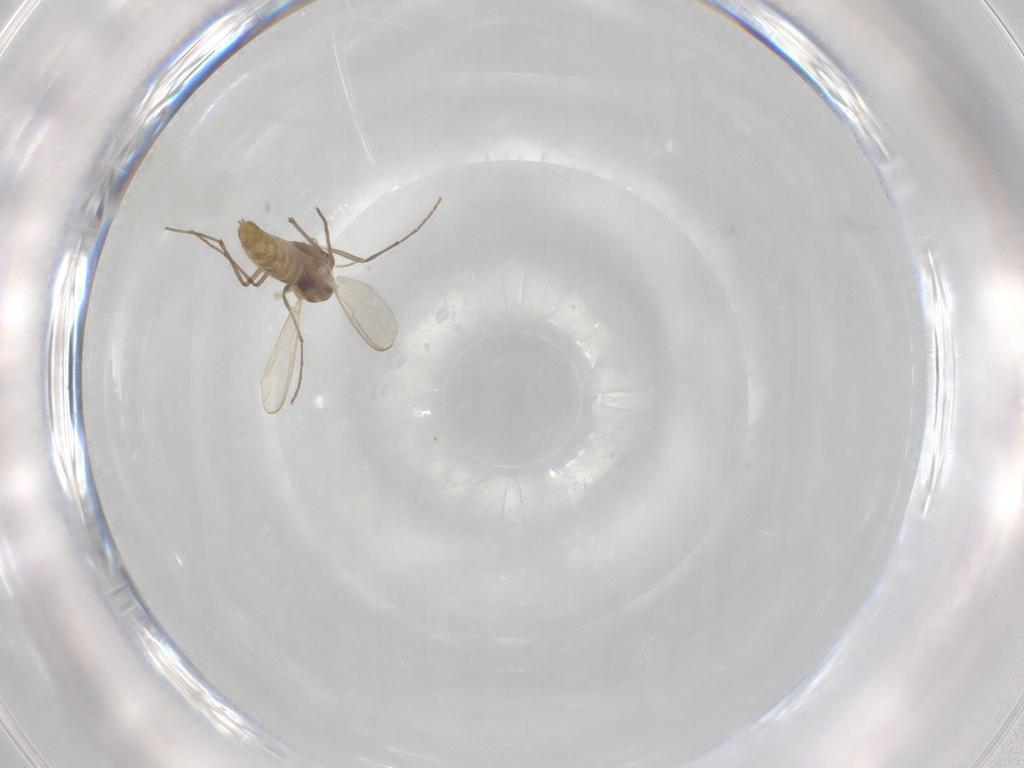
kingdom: Animalia
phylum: Arthropoda
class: Insecta
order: Diptera
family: Chironomidae
